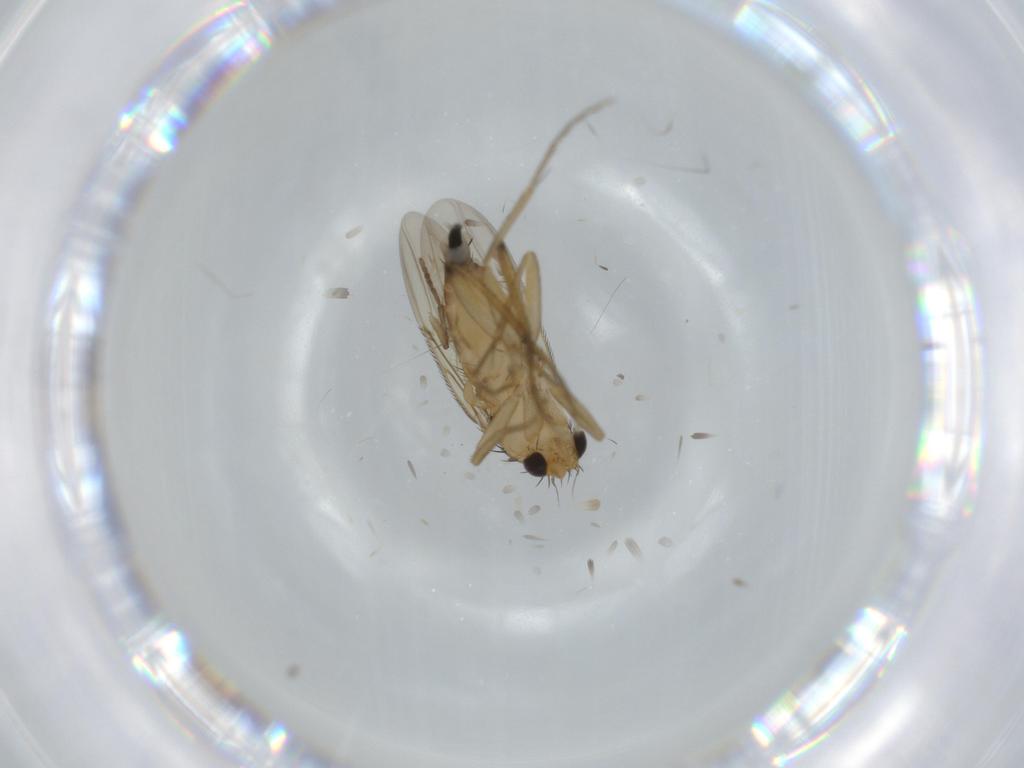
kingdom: Animalia
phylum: Arthropoda
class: Insecta
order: Diptera
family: Phoridae
